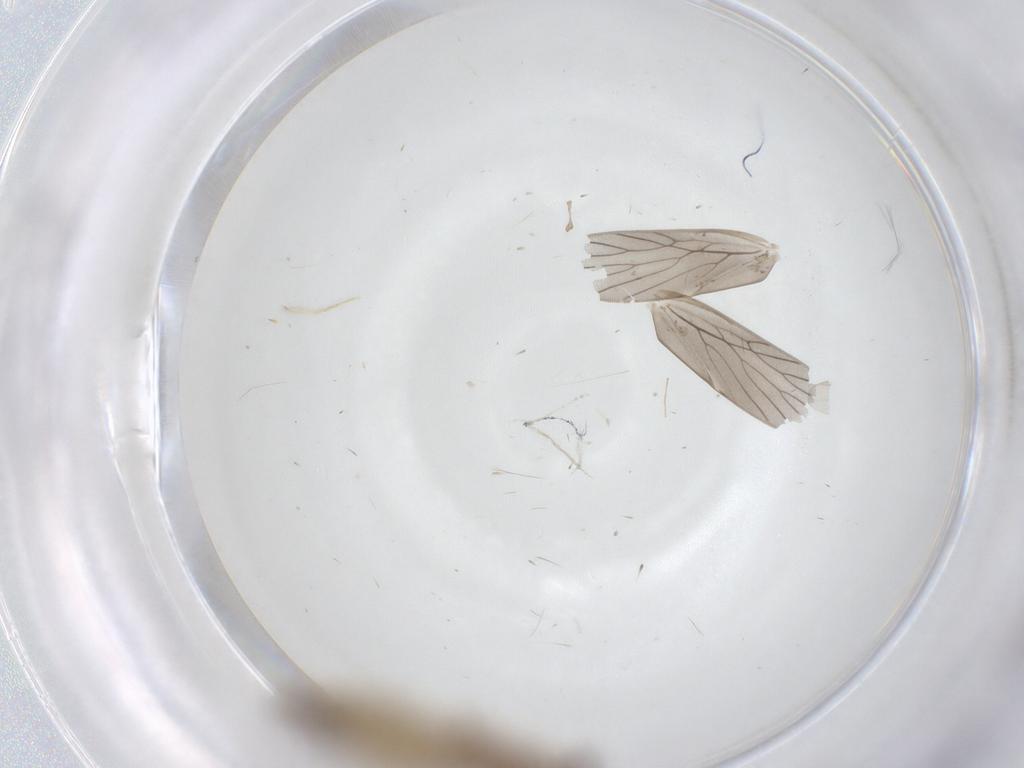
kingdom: Animalia
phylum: Arthropoda
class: Insecta
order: Psocodea
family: Lepidopsocidae
